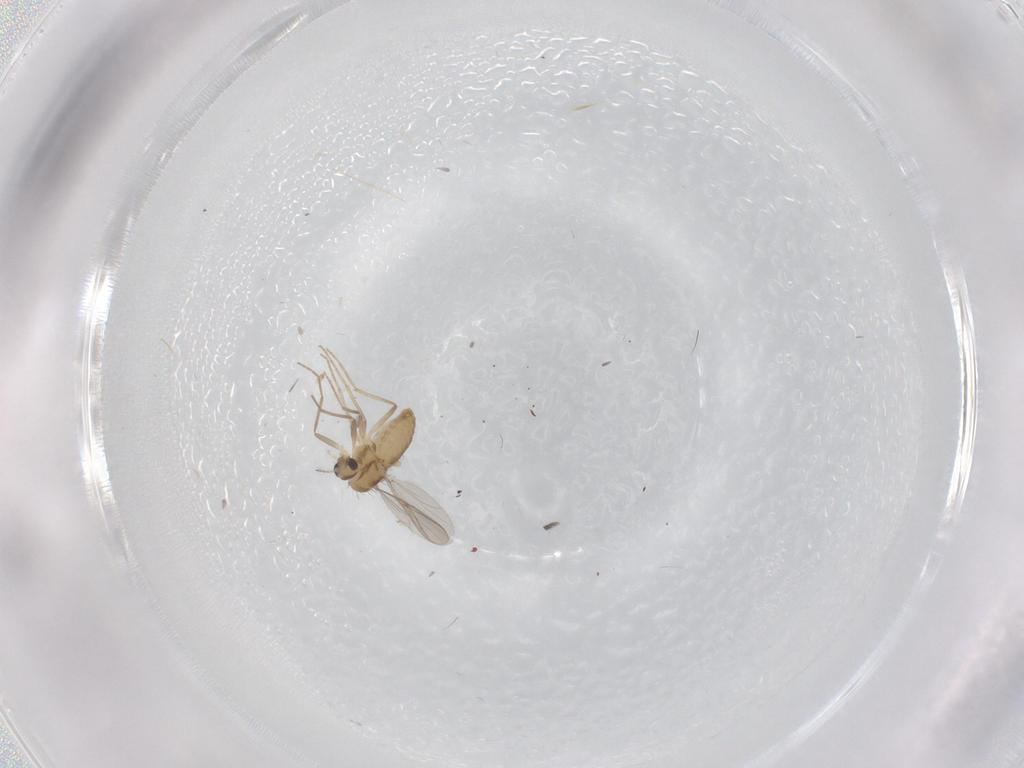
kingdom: Animalia
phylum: Arthropoda
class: Insecta
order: Diptera
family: Chironomidae
